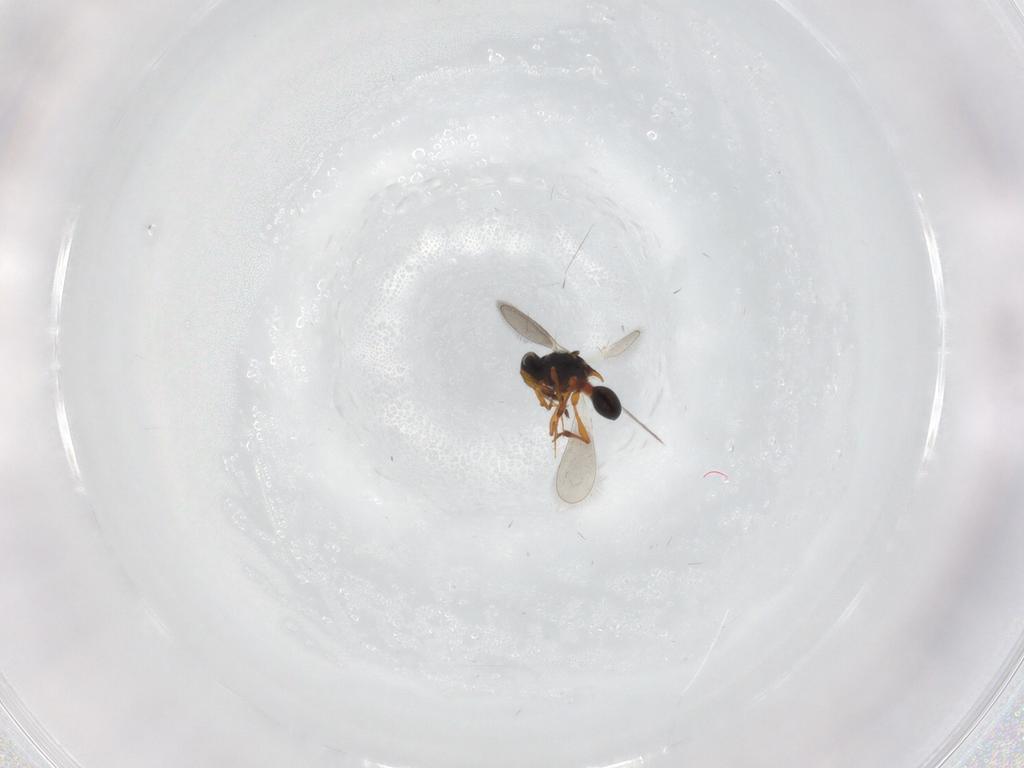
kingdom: Animalia
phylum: Arthropoda
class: Insecta
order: Hymenoptera
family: Platygastridae
